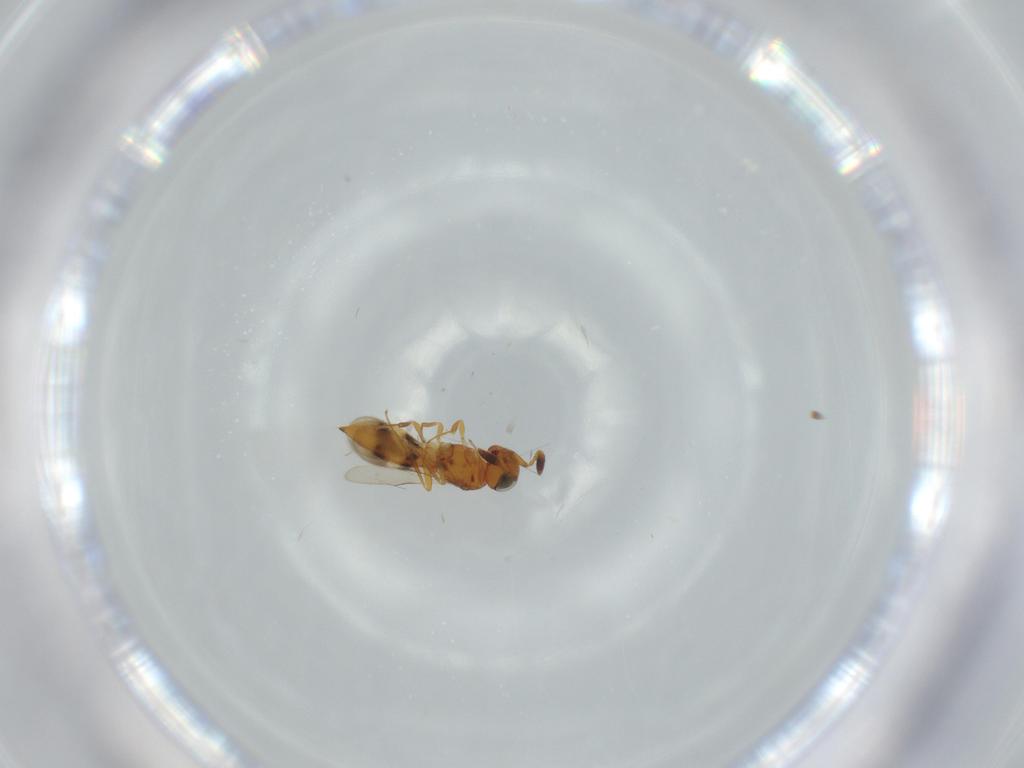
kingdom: Animalia
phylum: Arthropoda
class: Insecta
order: Hymenoptera
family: Scelionidae
